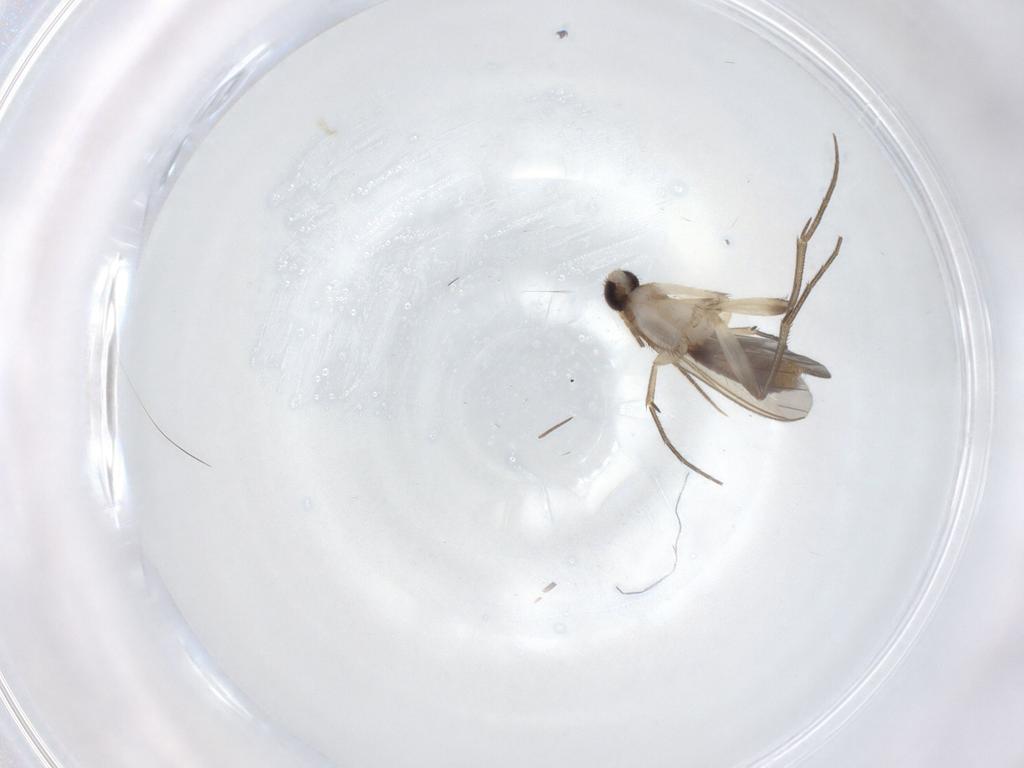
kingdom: Animalia
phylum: Arthropoda
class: Insecta
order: Diptera
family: Mycetophilidae
